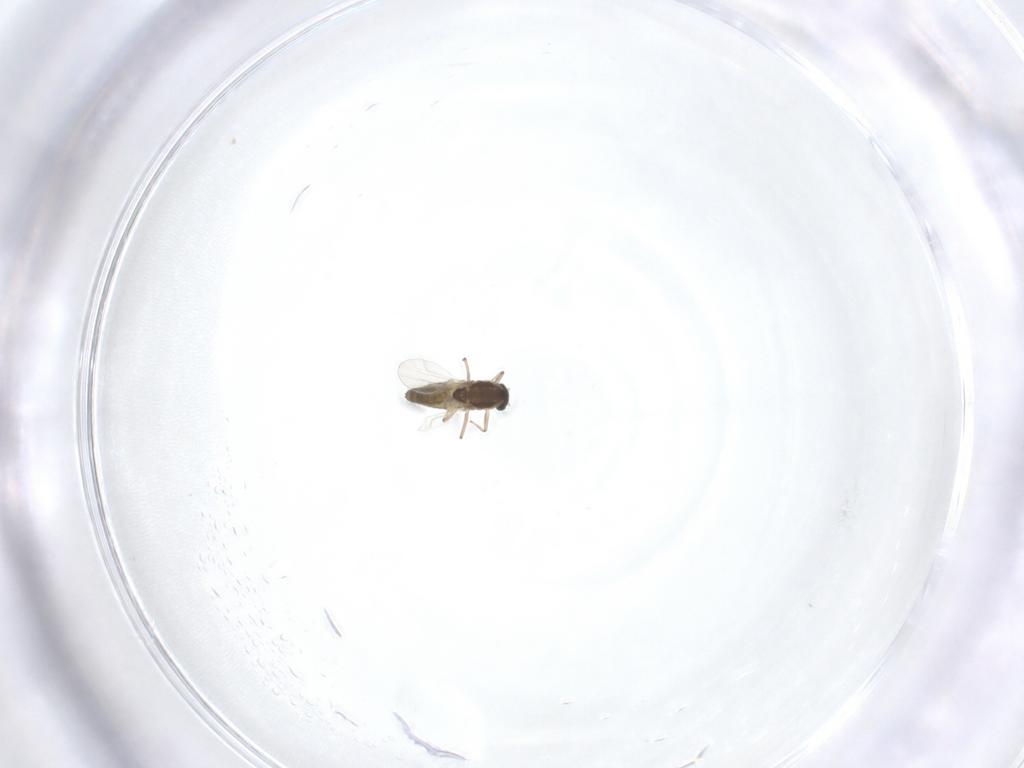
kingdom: Animalia
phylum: Arthropoda
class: Insecta
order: Diptera
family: Chironomidae
